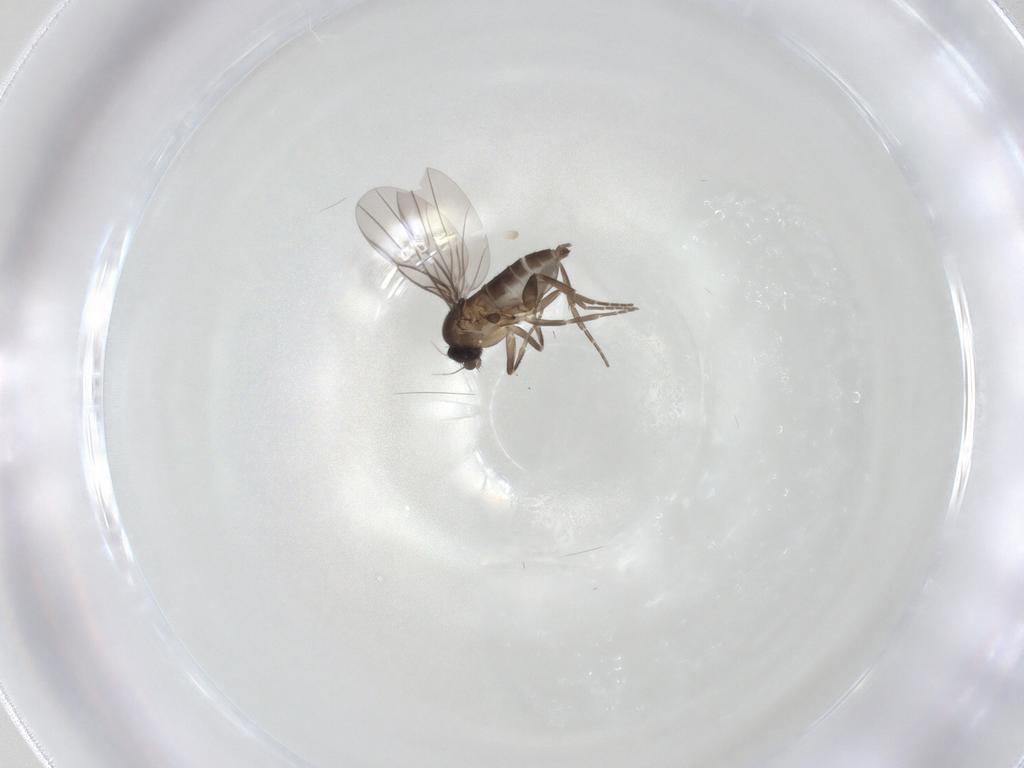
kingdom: Animalia
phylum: Arthropoda
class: Insecta
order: Diptera
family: Phoridae
